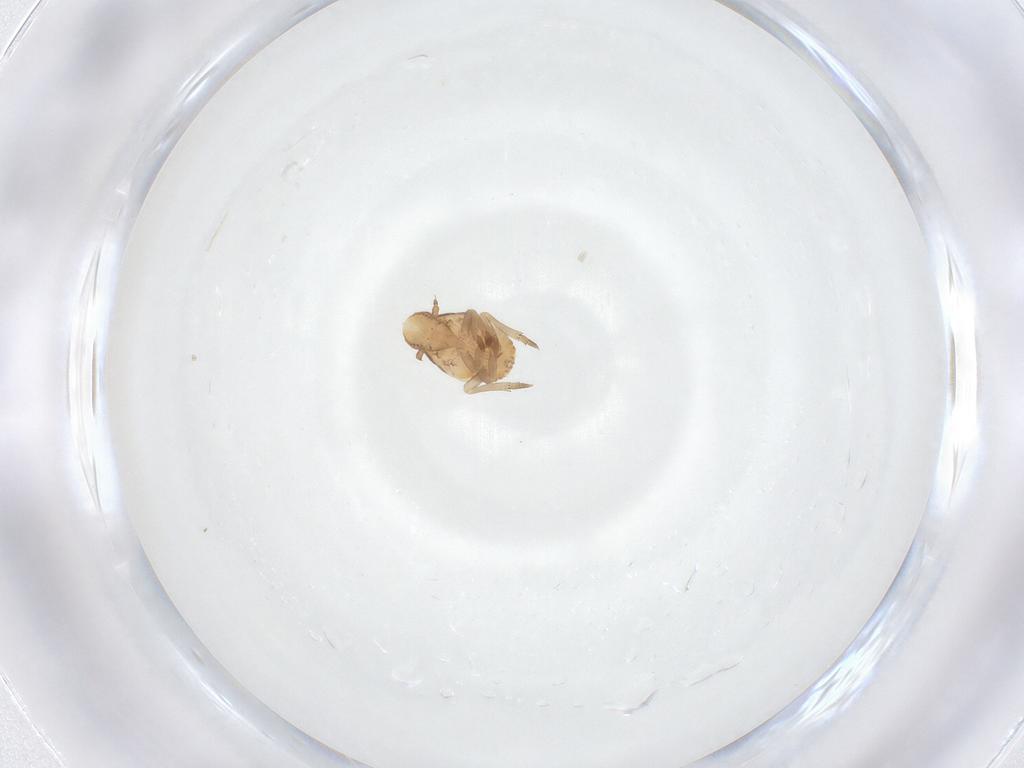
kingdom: Animalia
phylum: Arthropoda
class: Insecta
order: Hemiptera
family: Flatidae
